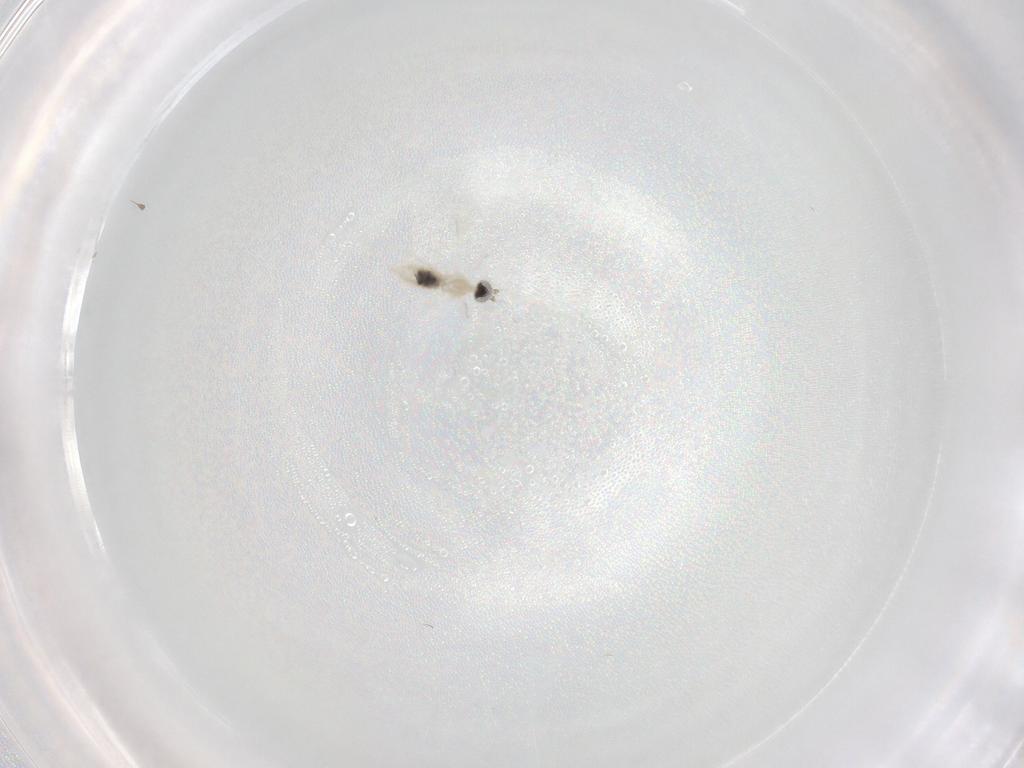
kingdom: Animalia
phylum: Arthropoda
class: Insecta
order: Diptera
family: Cecidomyiidae
